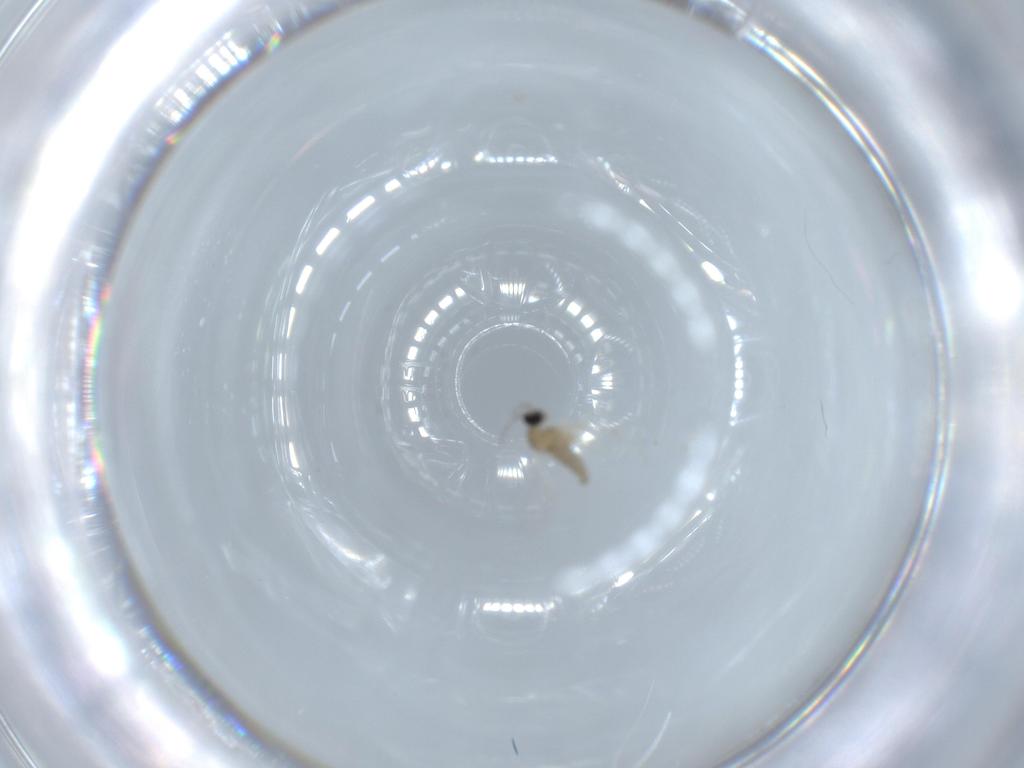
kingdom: Animalia
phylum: Arthropoda
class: Insecta
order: Diptera
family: Cecidomyiidae
